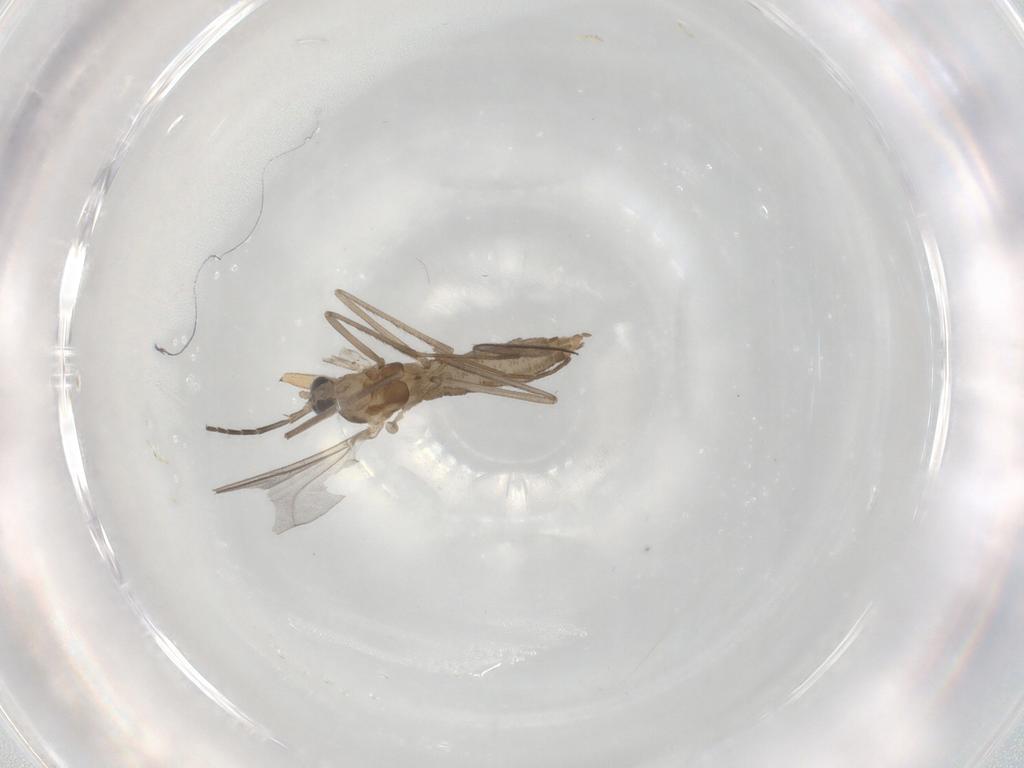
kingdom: Animalia
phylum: Arthropoda
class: Insecta
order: Diptera
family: Cecidomyiidae
